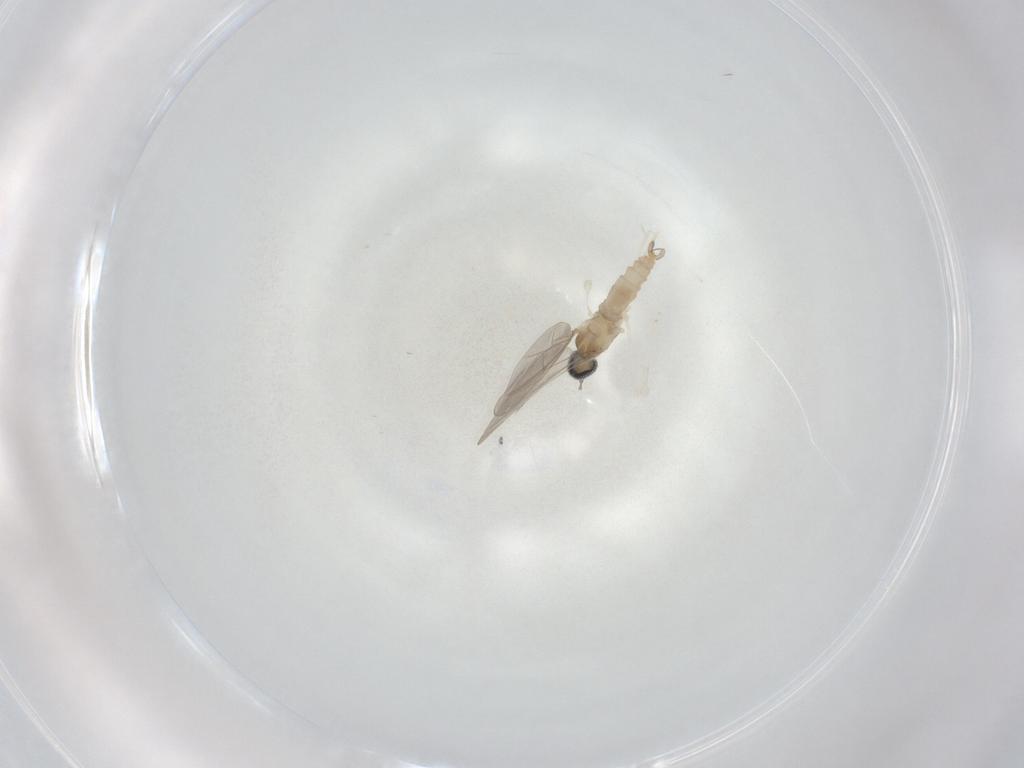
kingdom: Animalia
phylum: Arthropoda
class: Insecta
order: Diptera
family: Cecidomyiidae
